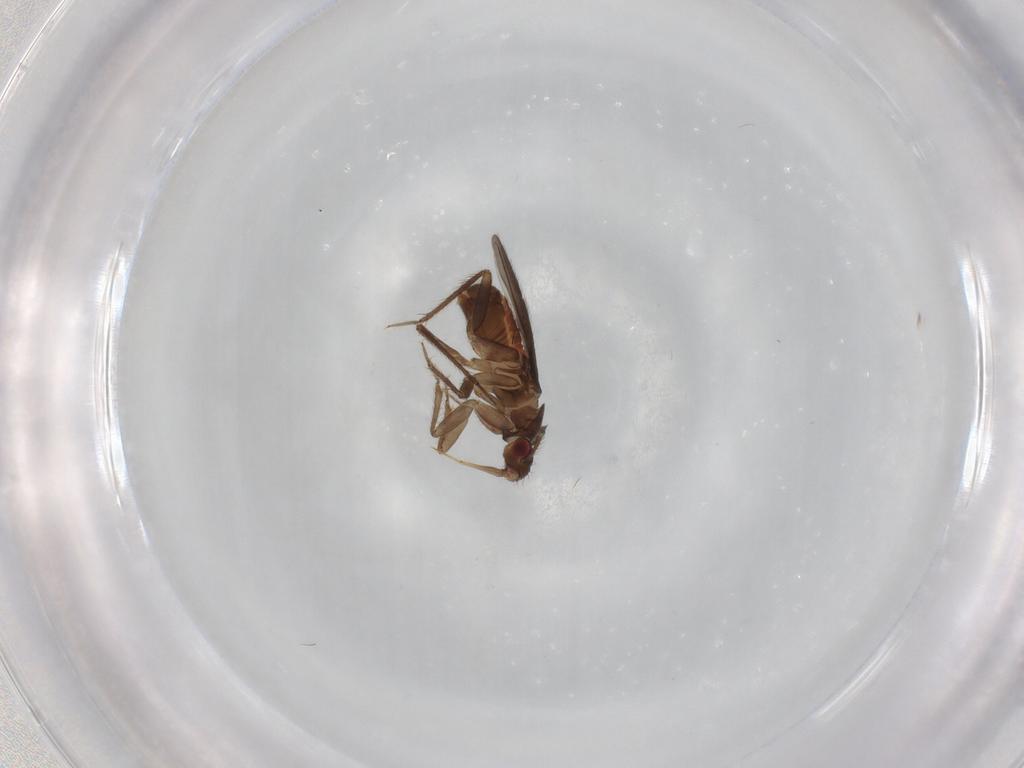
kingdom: Animalia
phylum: Arthropoda
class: Insecta
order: Hemiptera
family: Ceratocombidae
